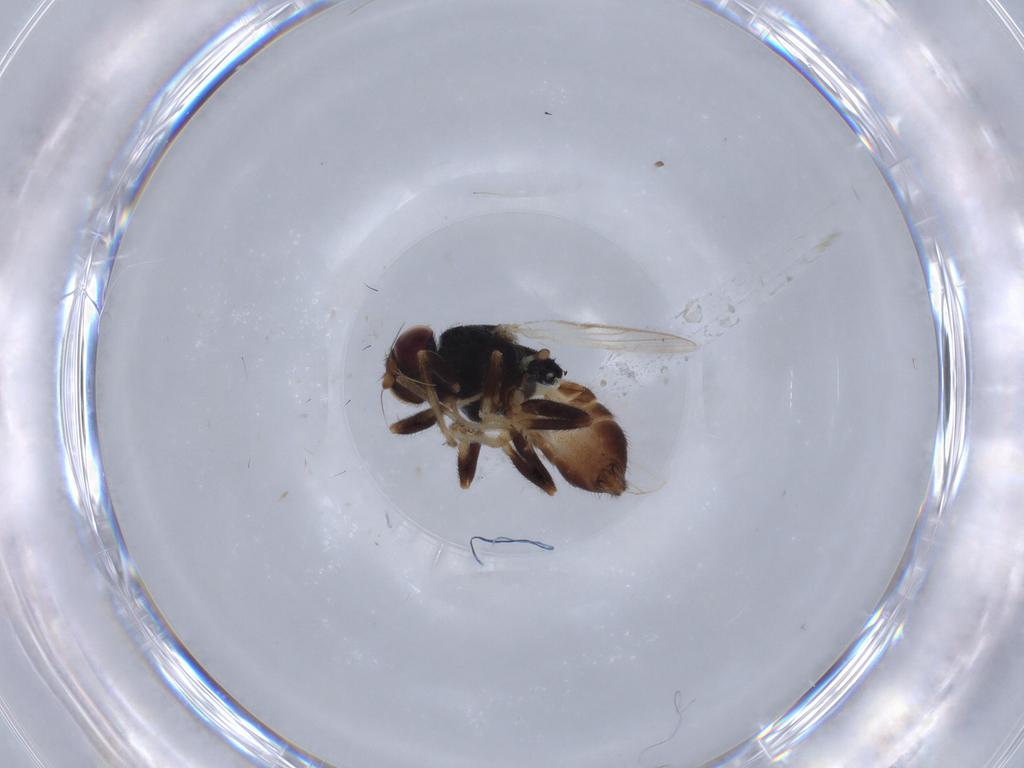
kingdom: Animalia
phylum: Arthropoda
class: Insecta
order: Diptera
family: Chloropidae
